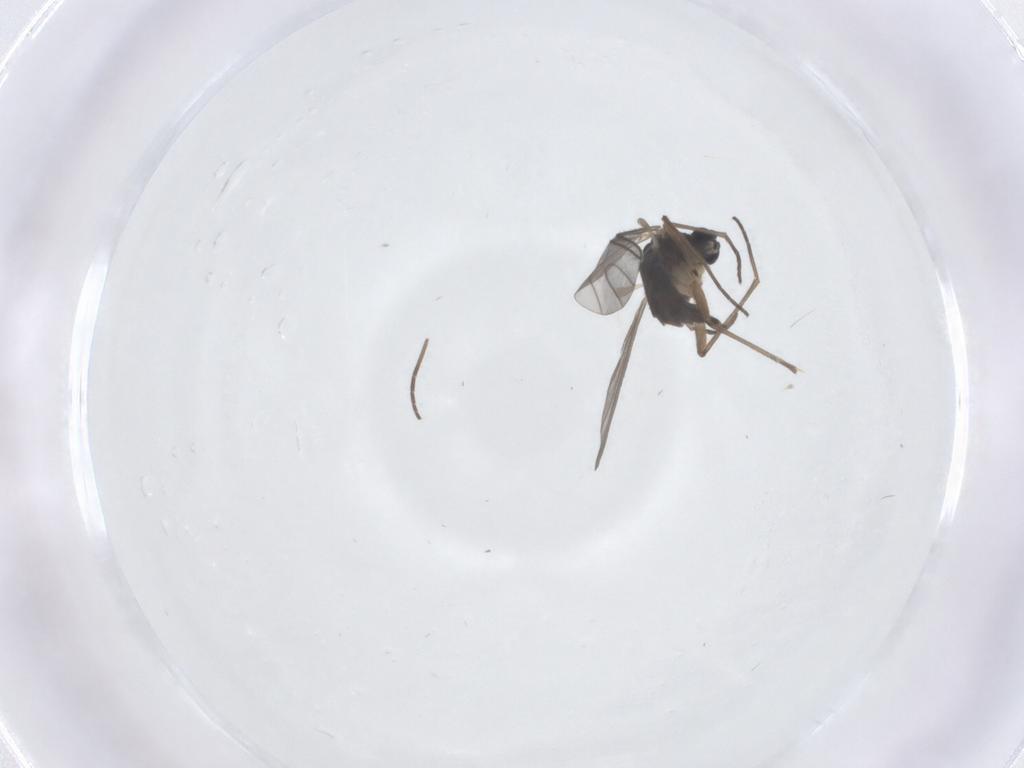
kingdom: Animalia
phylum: Arthropoda
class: Insecta
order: Diptera
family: Sciaridae
